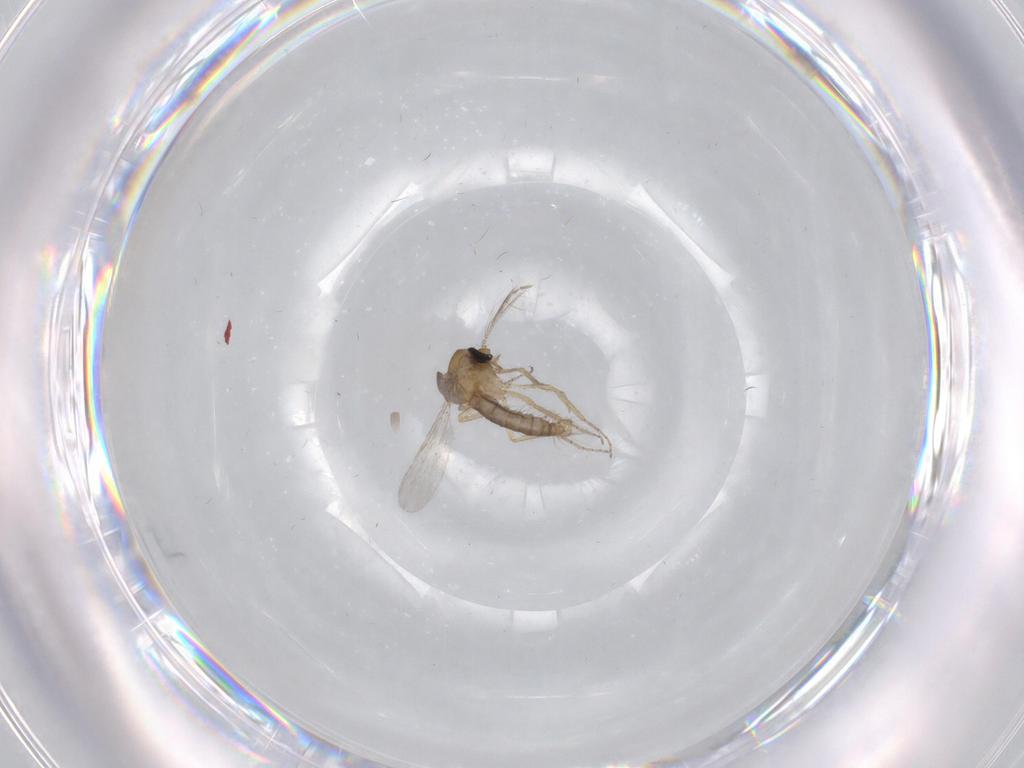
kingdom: Animalia
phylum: Arthropoda
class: Insecta
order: Diptera
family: Ceratopogonidae
